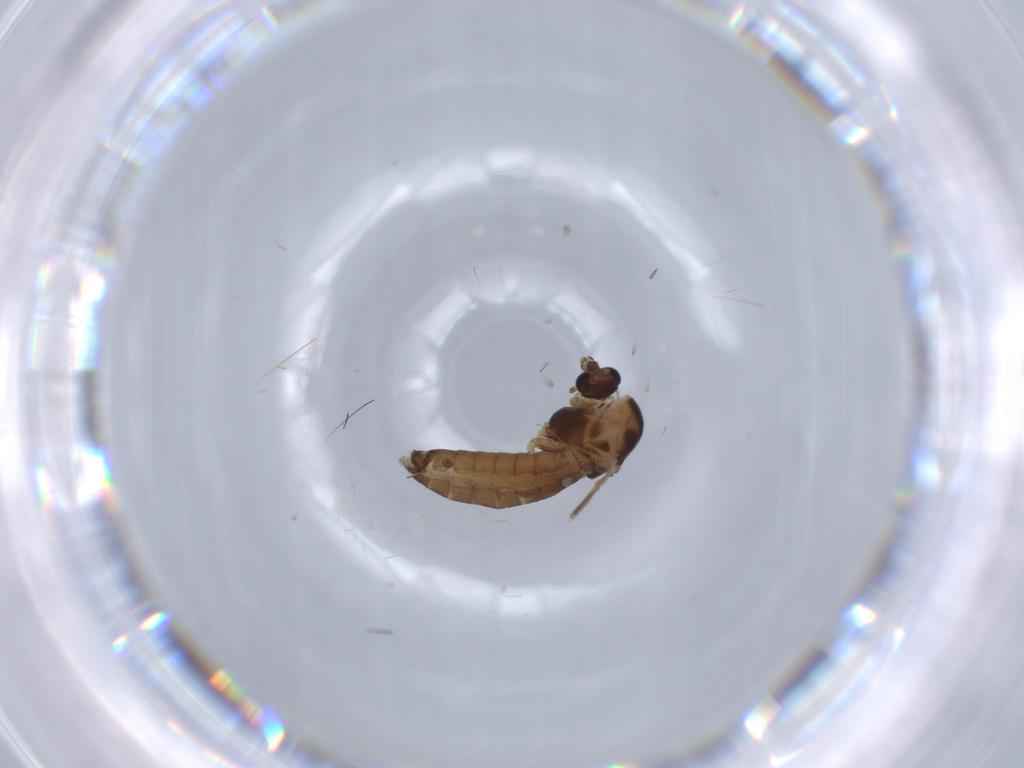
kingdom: Animalia
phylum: Arthropoda
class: Insecta
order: Diptera
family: Chironomidae
